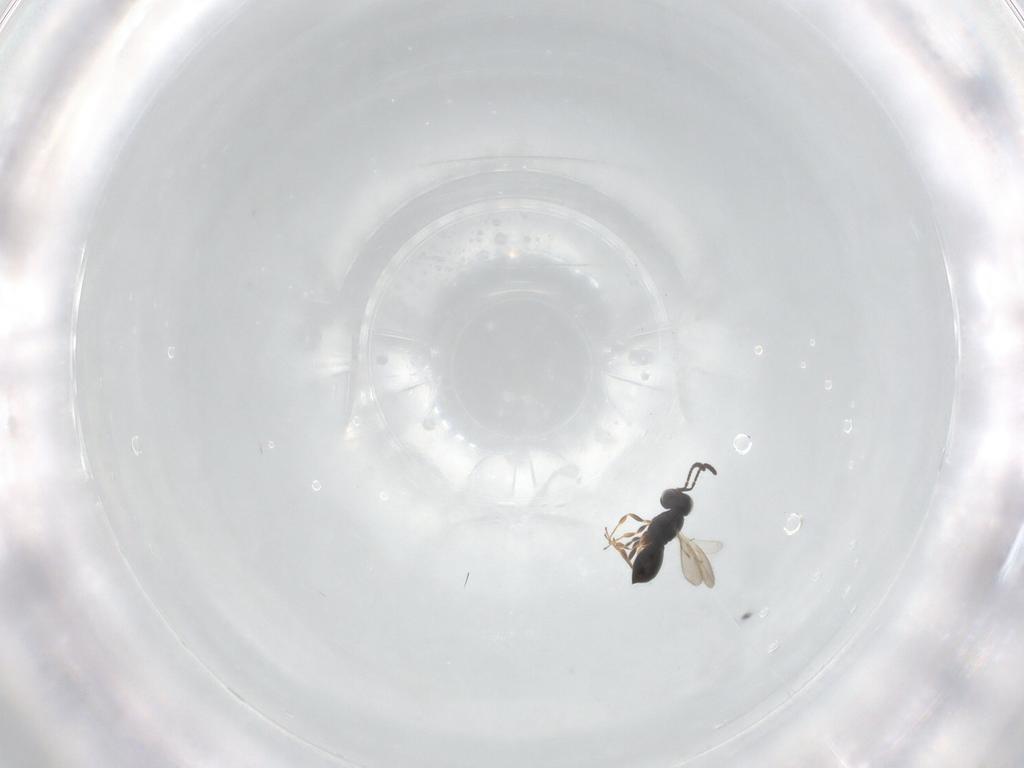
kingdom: Animalia
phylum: Arthropoda
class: Insecta
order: Hymenoptera
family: Scelionidae
